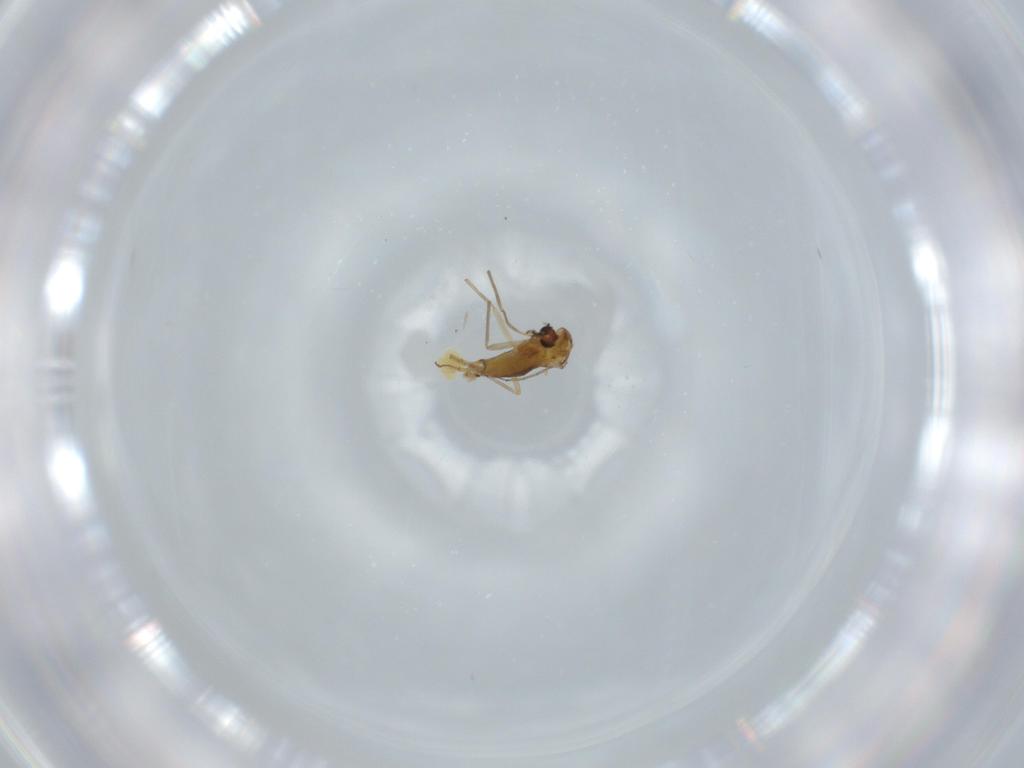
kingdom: Animalia
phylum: Arthropoda
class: Insecta
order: Diptera
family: Chironomidae
